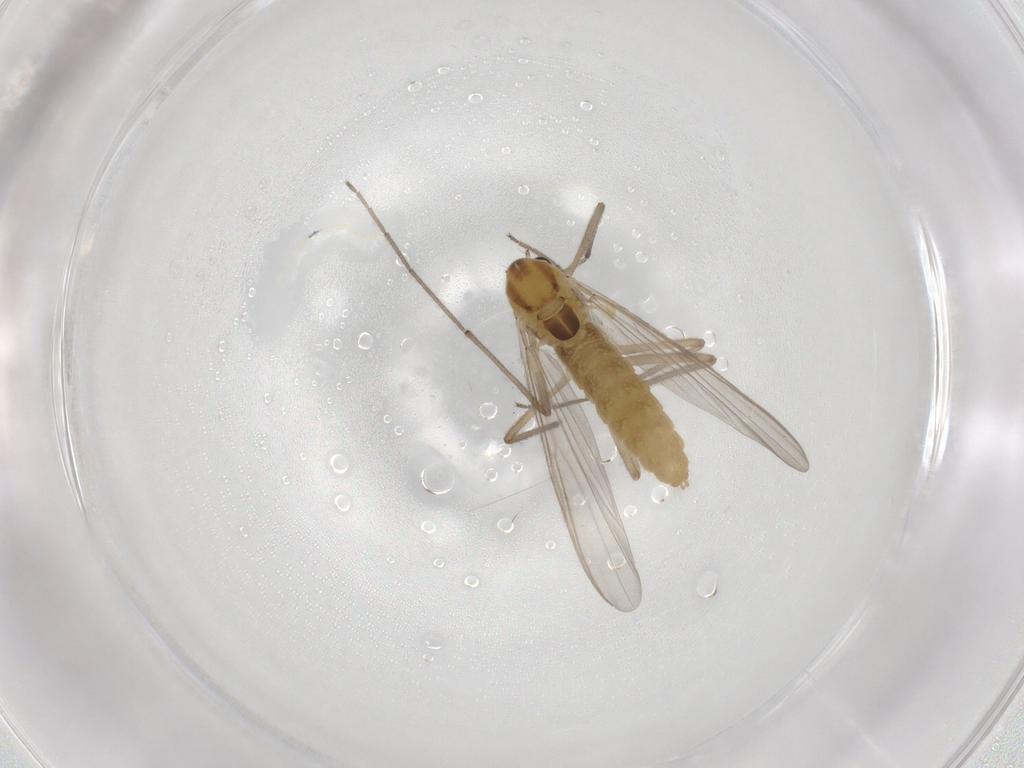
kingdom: Animalia
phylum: Arthropoda
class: Insecta
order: Diptera
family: Chironomidae
